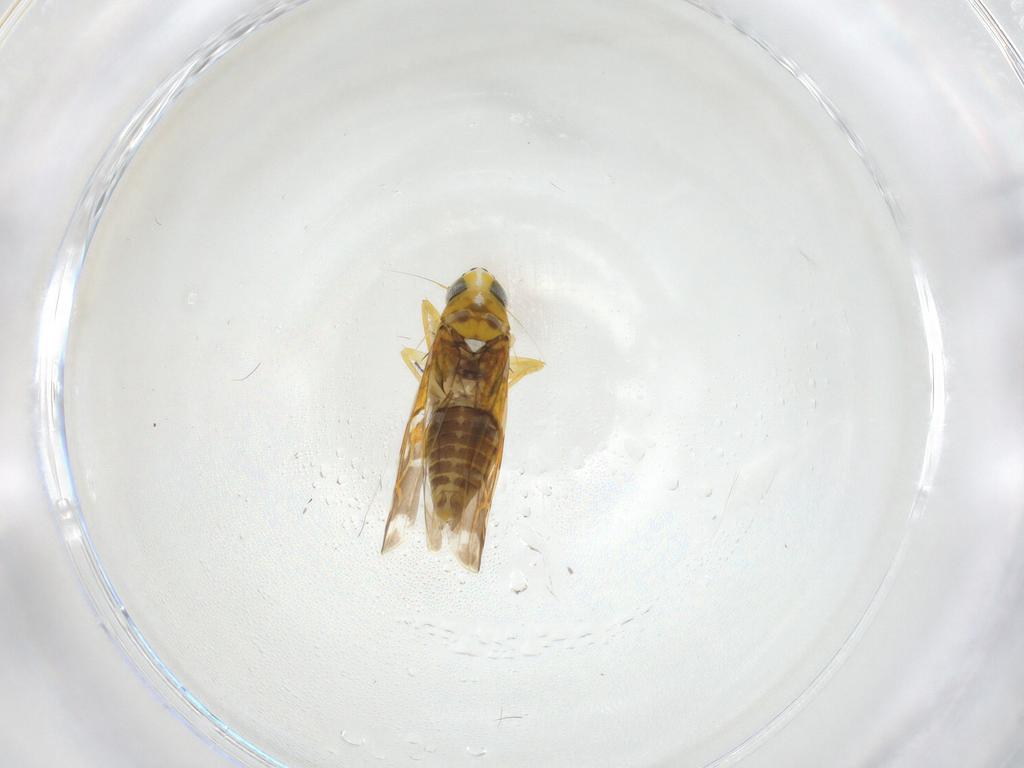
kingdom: Animalia
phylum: Arthropoda
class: Insecta
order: Hemiptera
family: Cicadellidae
